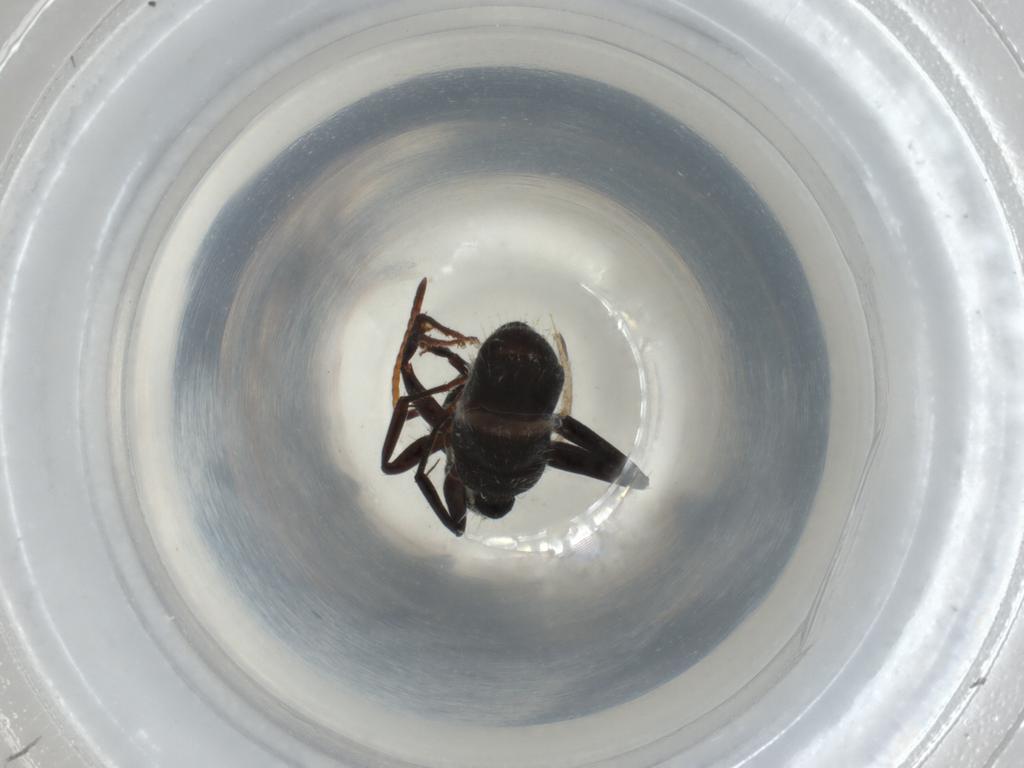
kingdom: Animalia
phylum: Arthropoda
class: Insecta
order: Hymenoptera
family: Formicidae
